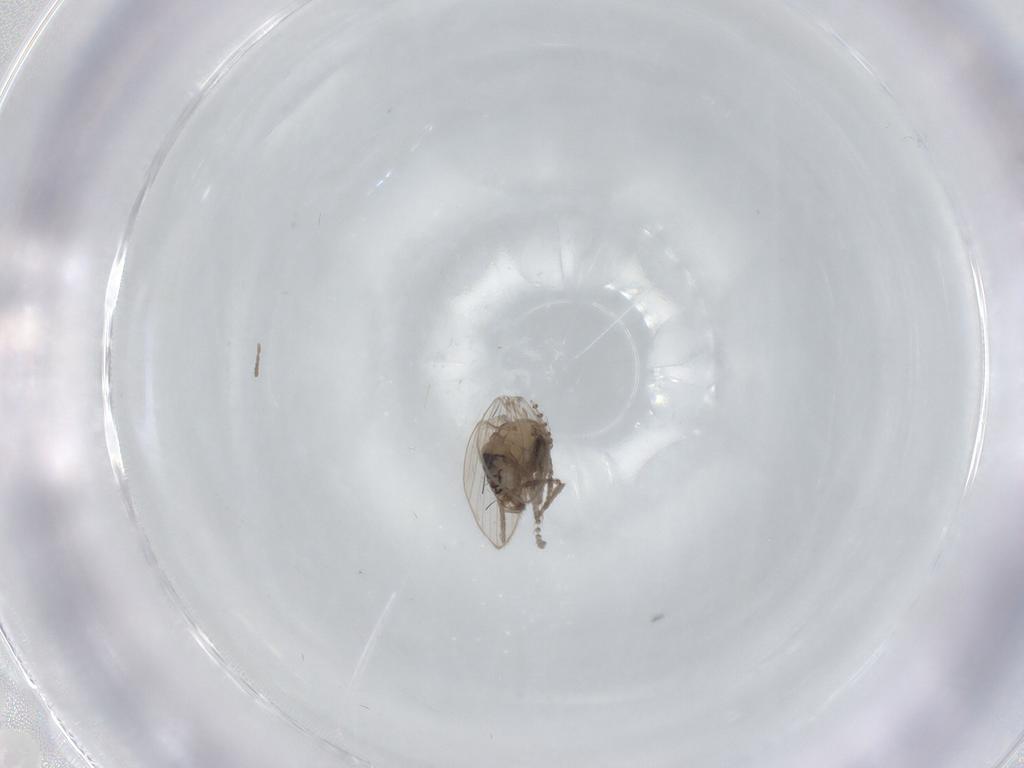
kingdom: Animalia
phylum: Arthropoda
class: Insecta
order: Diptera
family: Psychodidae
